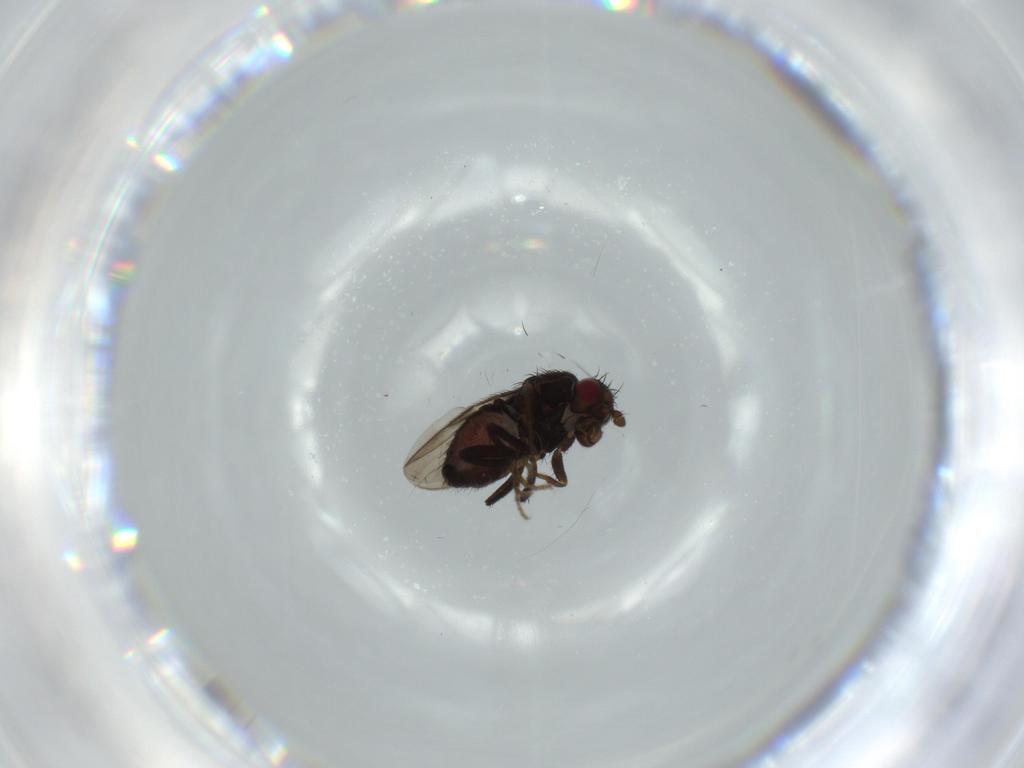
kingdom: Animalia
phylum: Arthropoda
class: Insecta
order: Diptera
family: Sphaeroceridae
